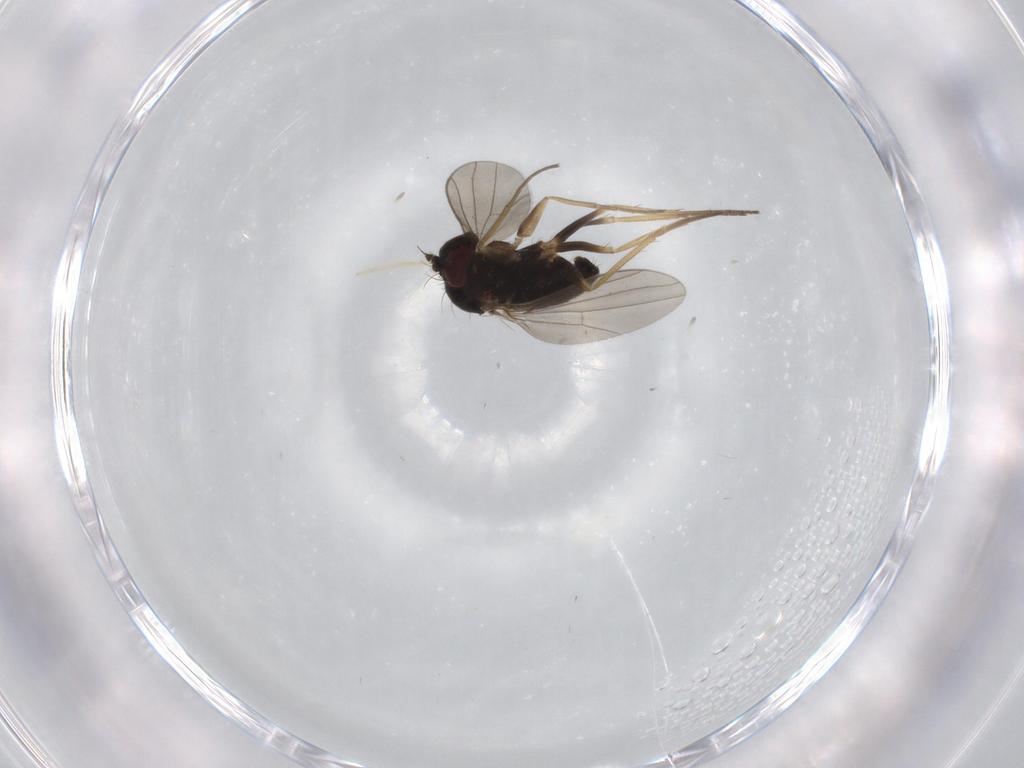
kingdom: Animalia
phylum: Arthropoda
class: Insecta
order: Diptera
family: Dolichopodidae
